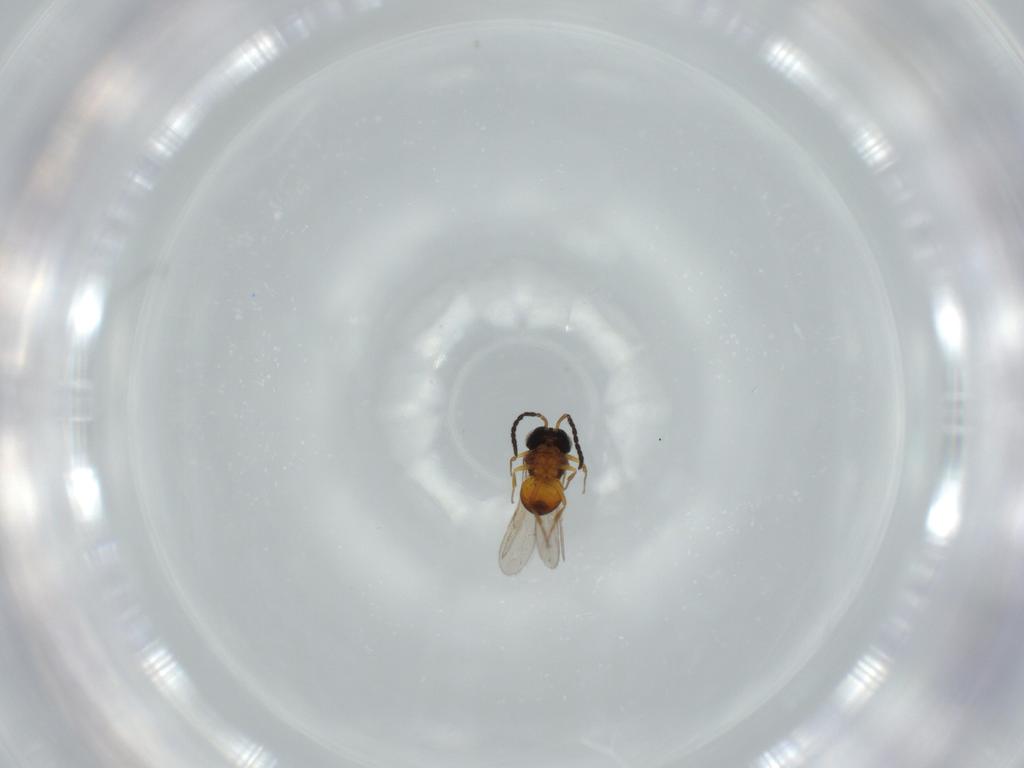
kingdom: Animalia
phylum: Arthropoda
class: Insecta
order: Hymenoptera
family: Scelionidae
